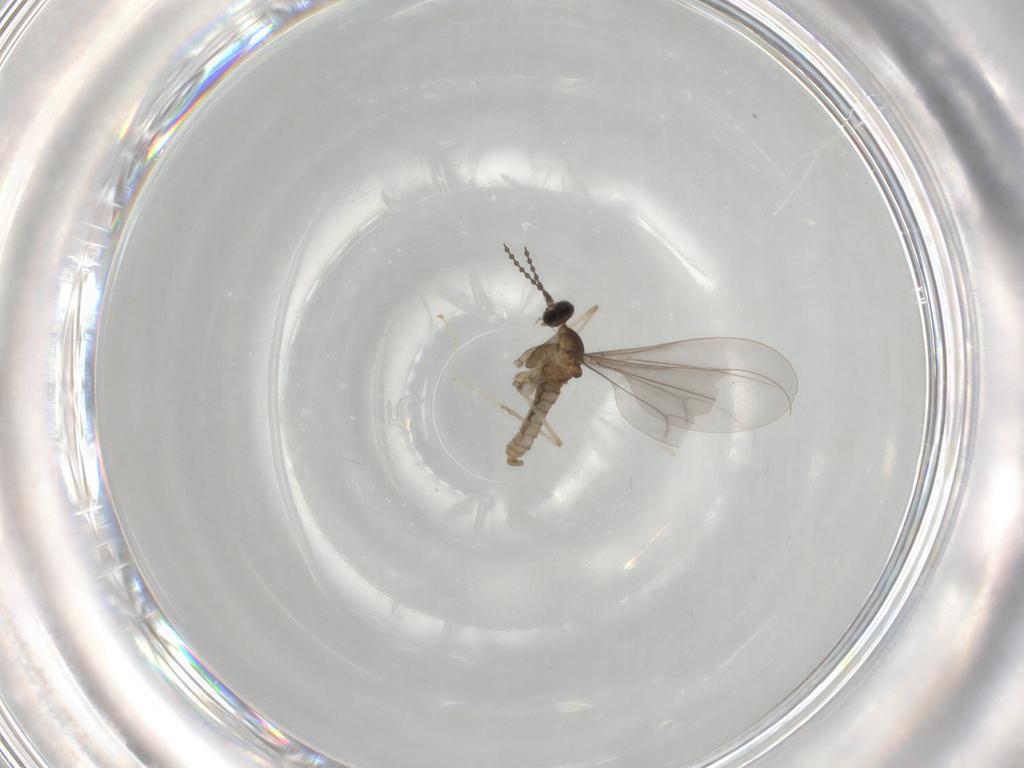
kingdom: Animalia
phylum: Arthropoda
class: Insecta
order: Diptera
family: Cecidomyiidae
